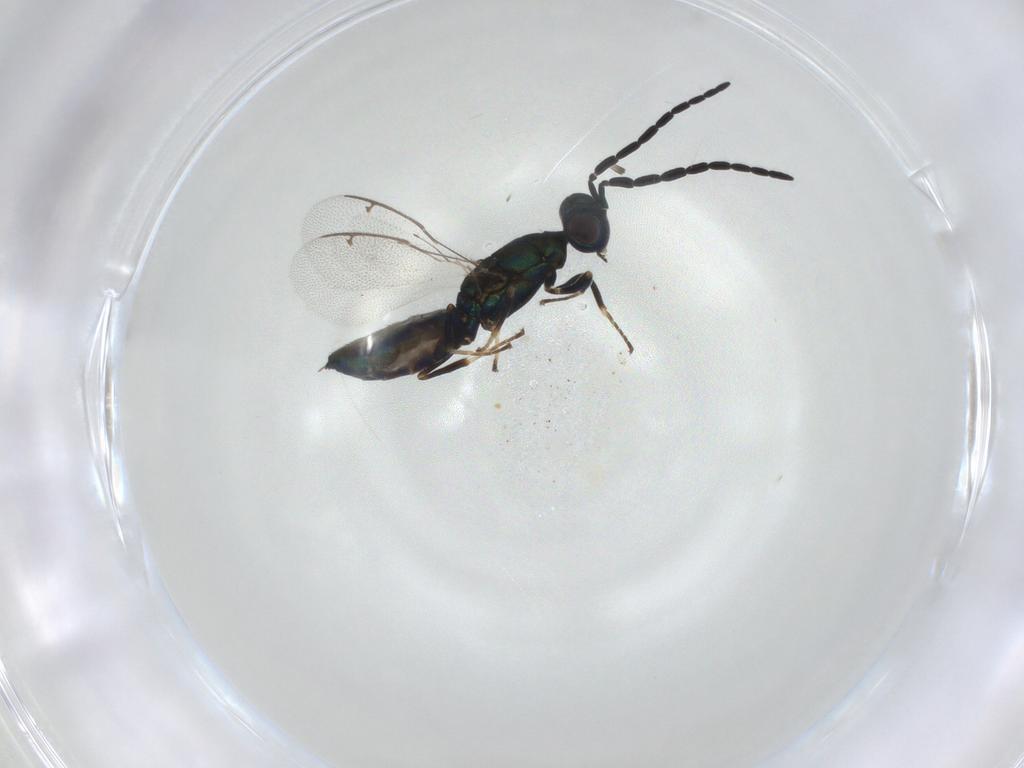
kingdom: Animalia
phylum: Arthropoda
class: Insecta
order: Hymenoptera
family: Eupelmidae
